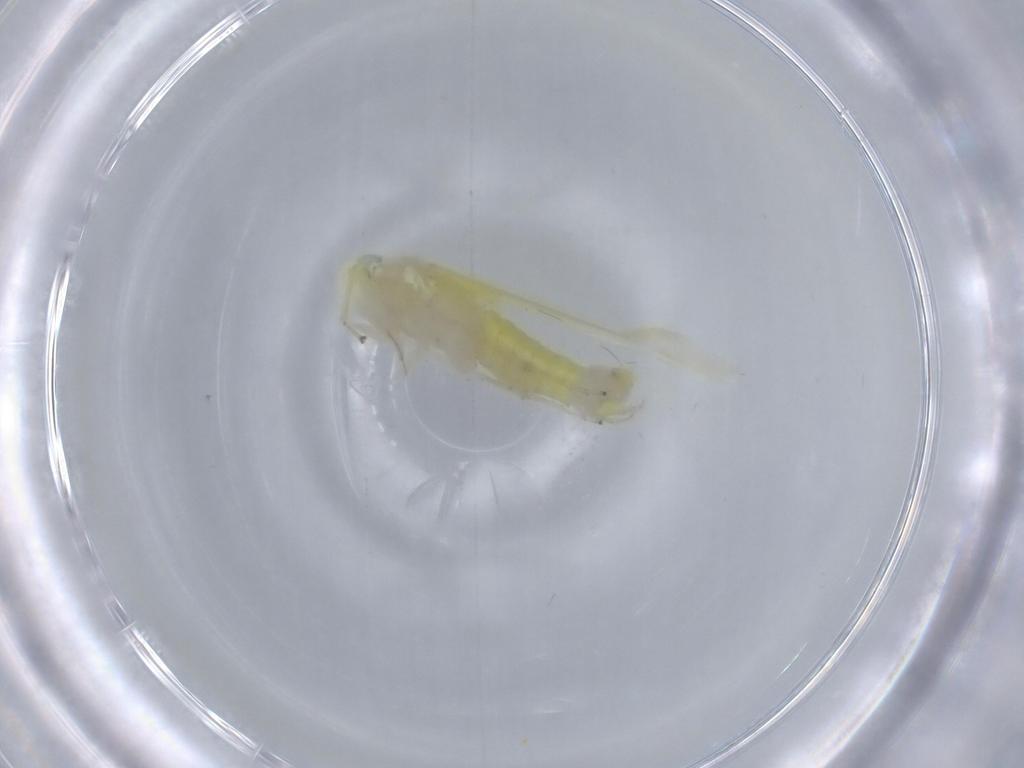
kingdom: Animalia
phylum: Arthropoda
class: Insecta
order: Hemiptera
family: Cicadellidae
